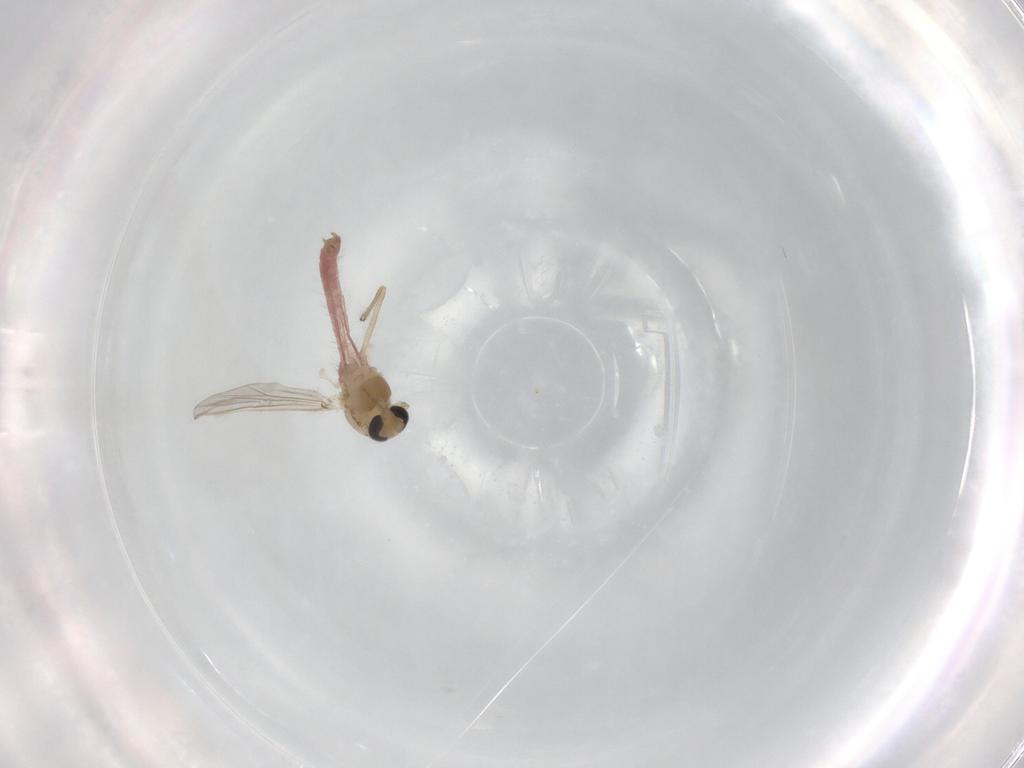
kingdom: Animalia
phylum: Arthropoda
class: Insecta
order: Diptera
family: Chironomidae
